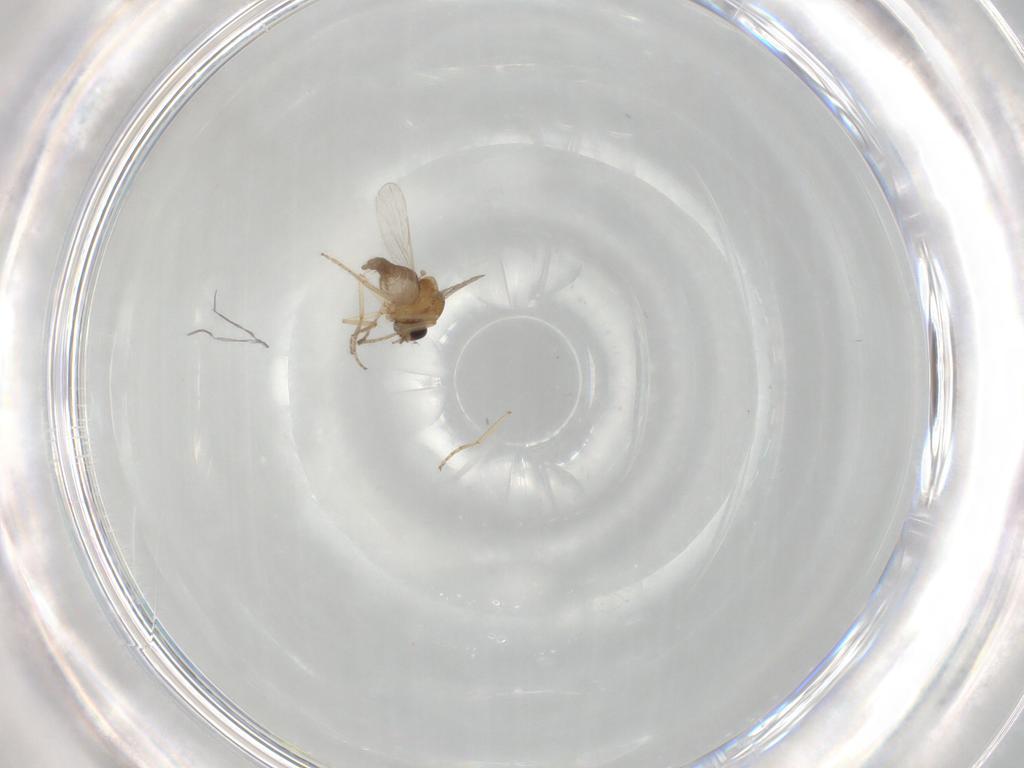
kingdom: Animalia
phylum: Arthropoda
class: Insecta
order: Diptera
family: Ceratopogonidae
